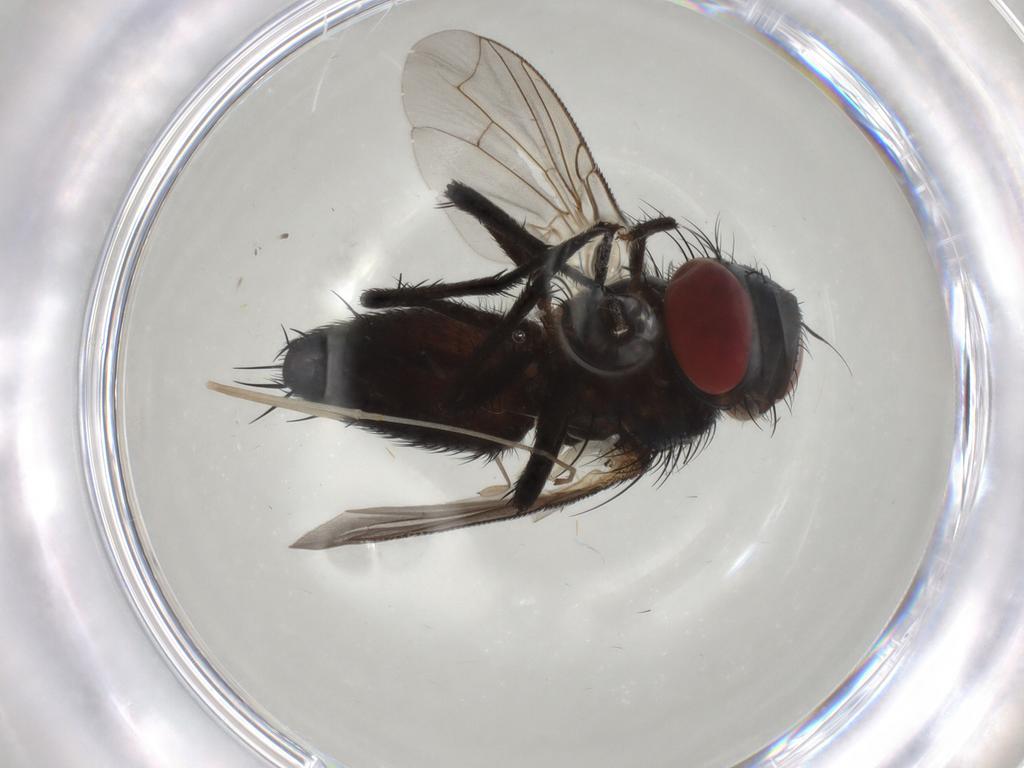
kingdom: Animalia
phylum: Arthropoda
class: Insecta
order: Diptera
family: Sarcophagidae
